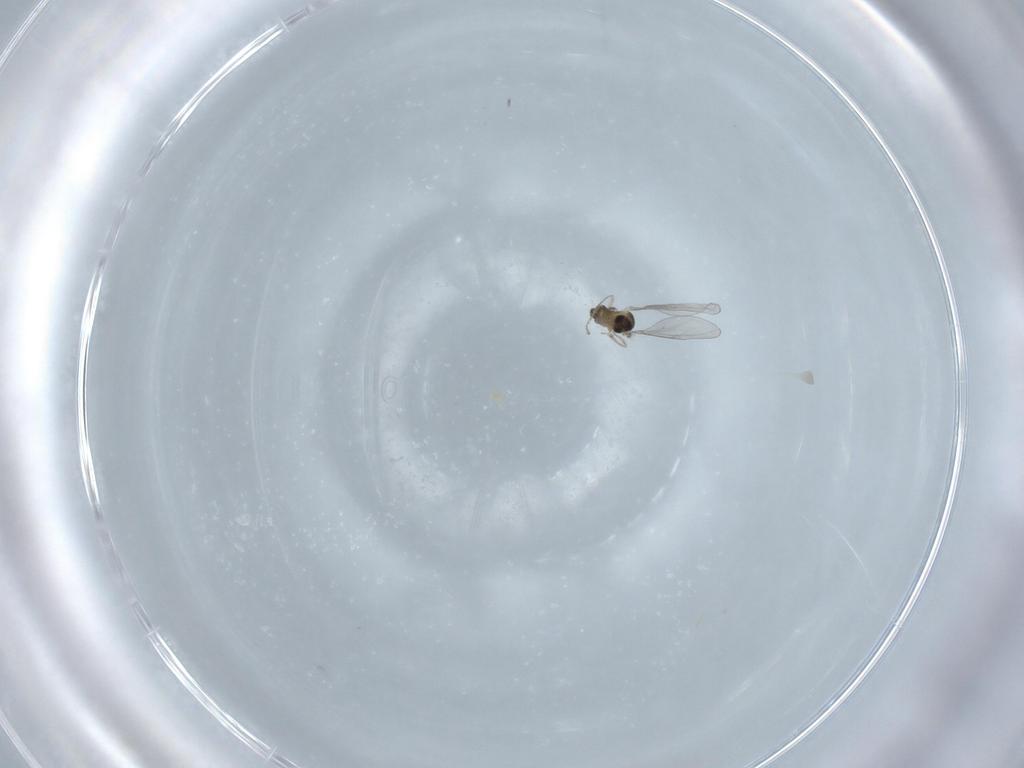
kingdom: Animalia
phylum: Arthropoda
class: Insecta
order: Diptera
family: Cecidomyiidae
